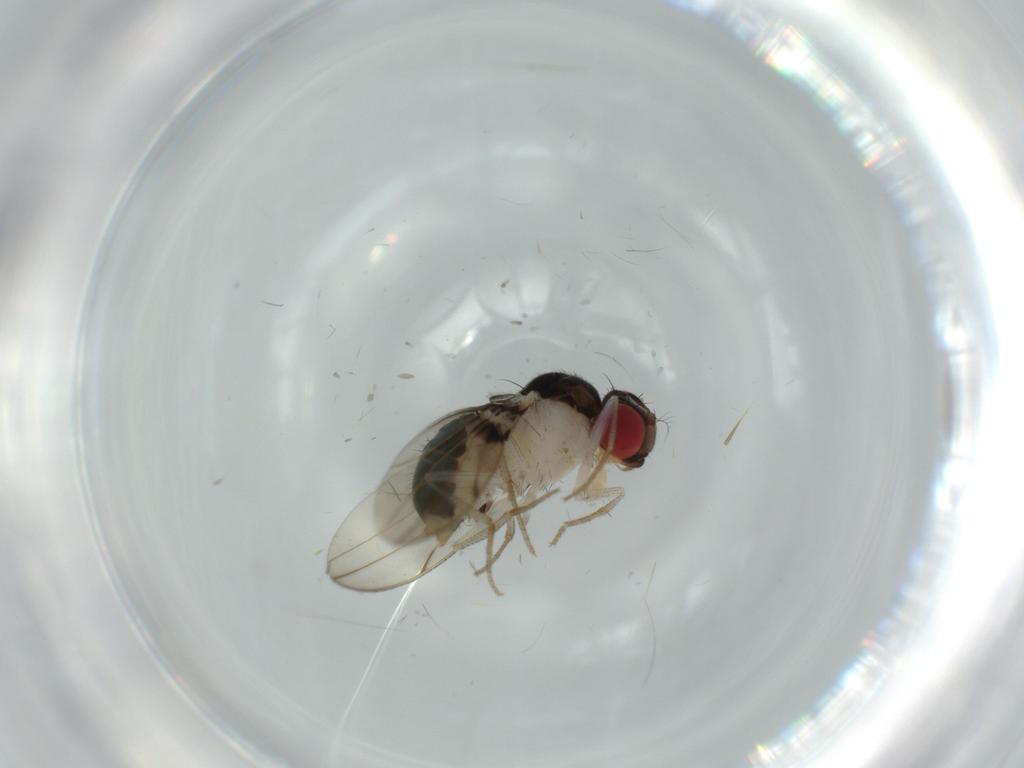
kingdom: Animalia
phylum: Arthropoda
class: Insecta
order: Diptera
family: Drosophilidae
